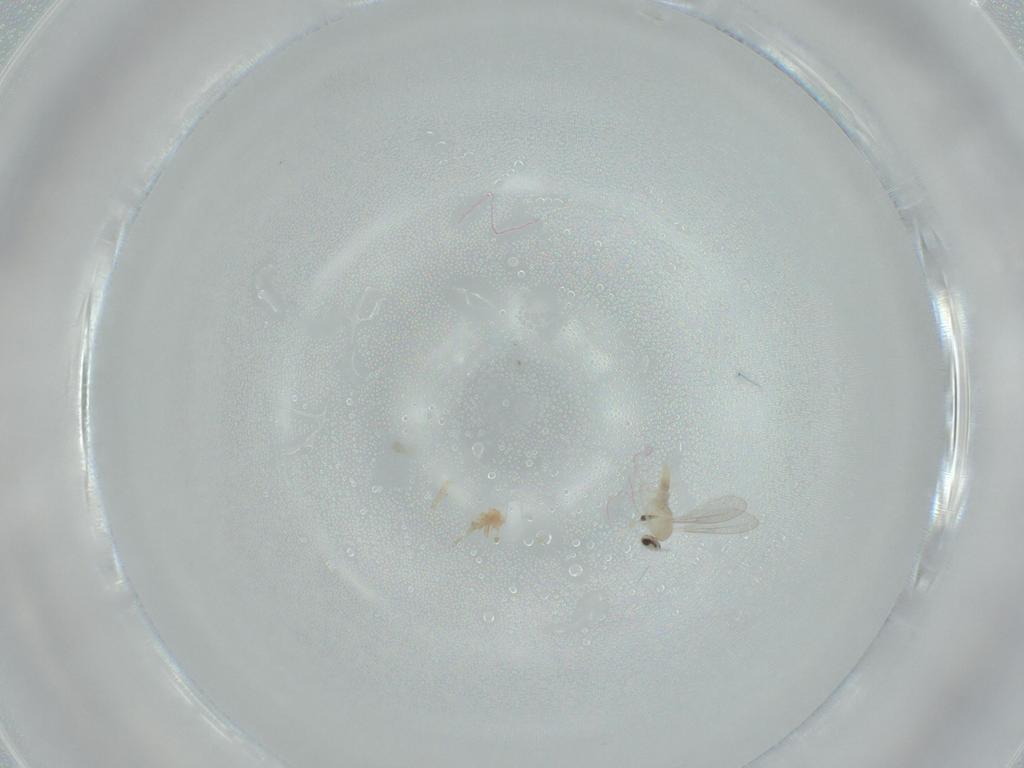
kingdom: Animalia
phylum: Arthropoda
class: Insecta
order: Diptera
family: Cecidomyiidae
